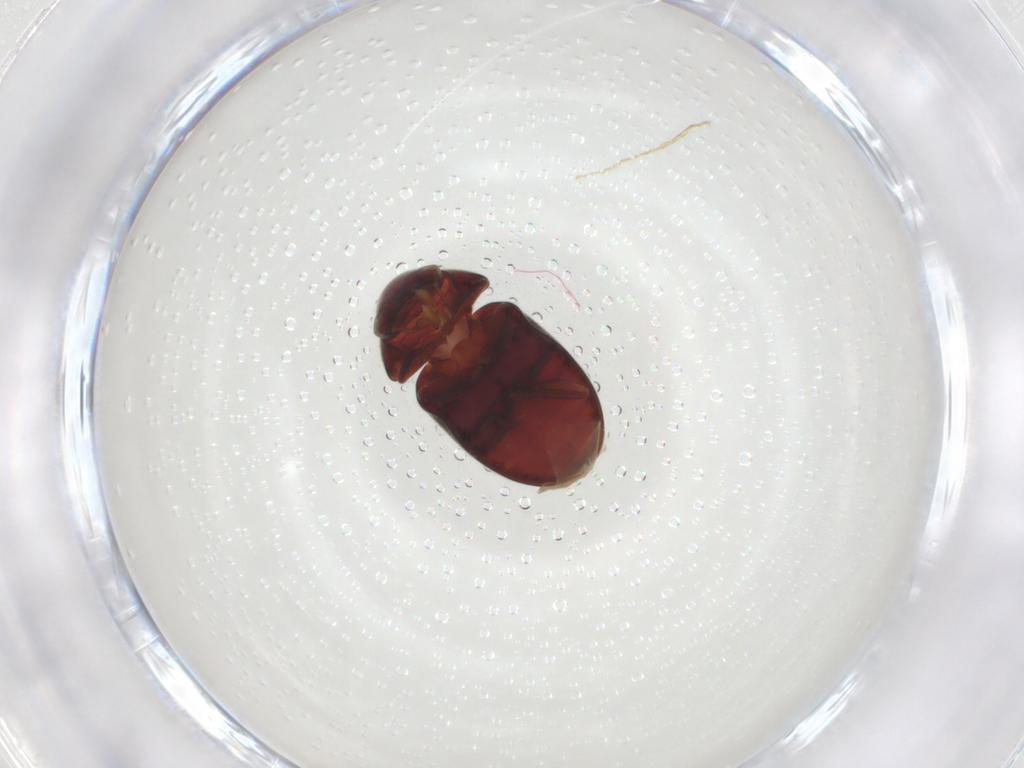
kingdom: Animalia
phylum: Arthropoda
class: Insecta
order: Coleoptera
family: Ptinidae
